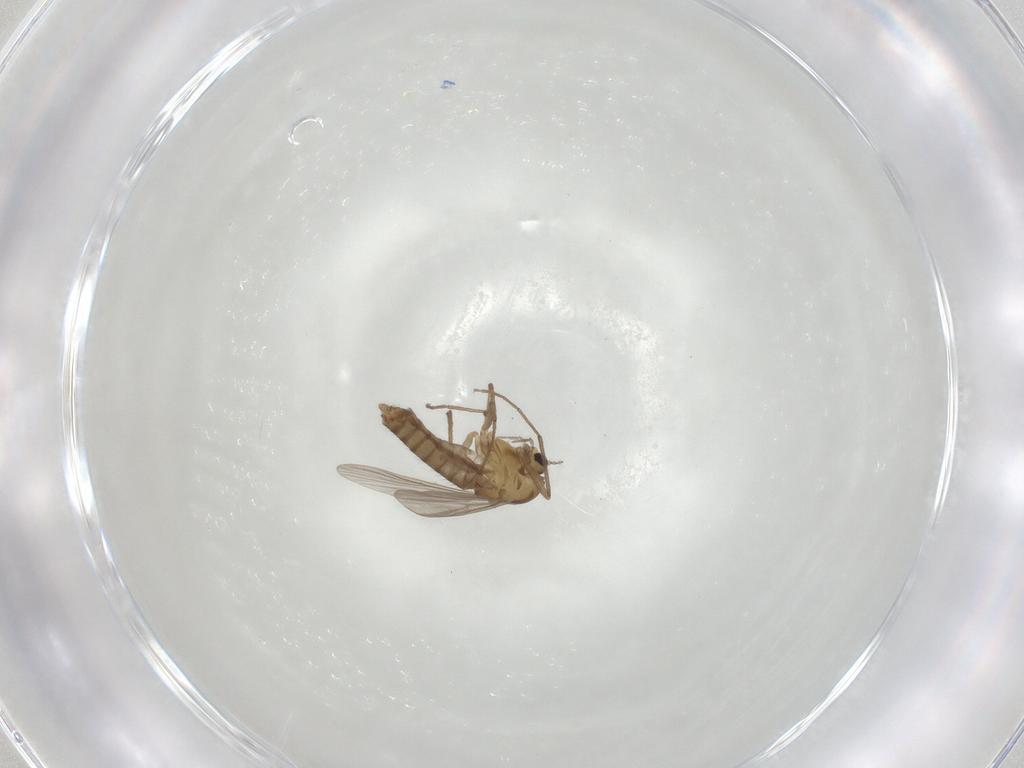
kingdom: Animalia
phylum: Arthropoda
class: Insecta
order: Diptera
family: Chironomidae
